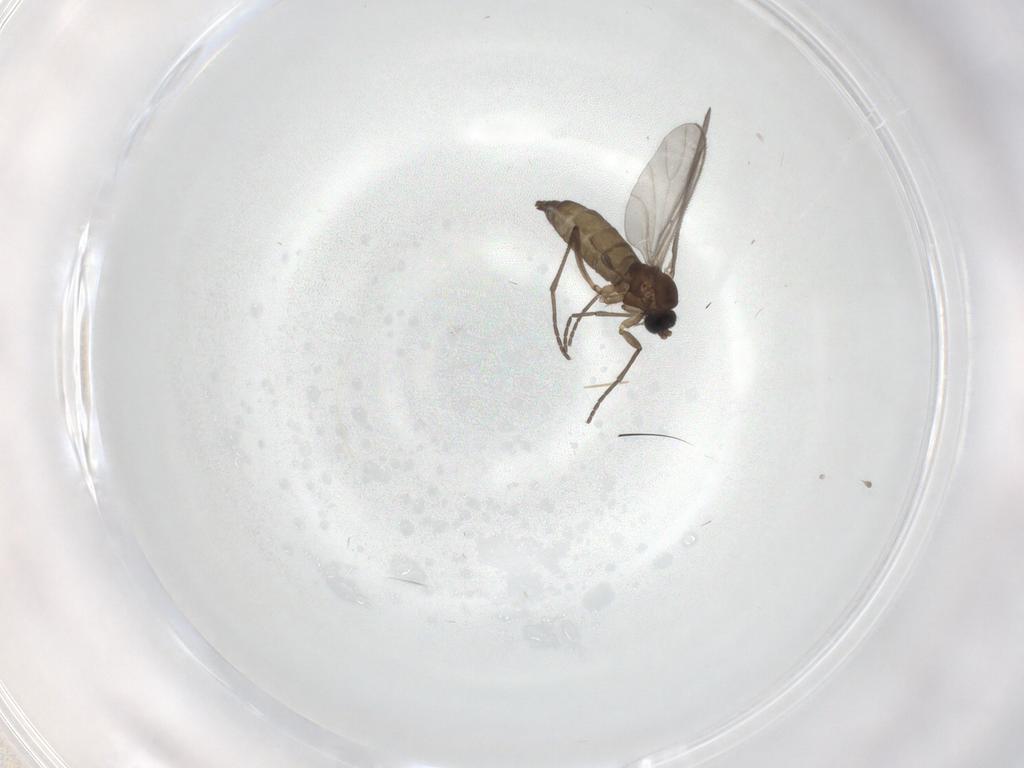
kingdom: Animalia
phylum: Arthropoda
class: Insecta
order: Diptera
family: Sciaridae
